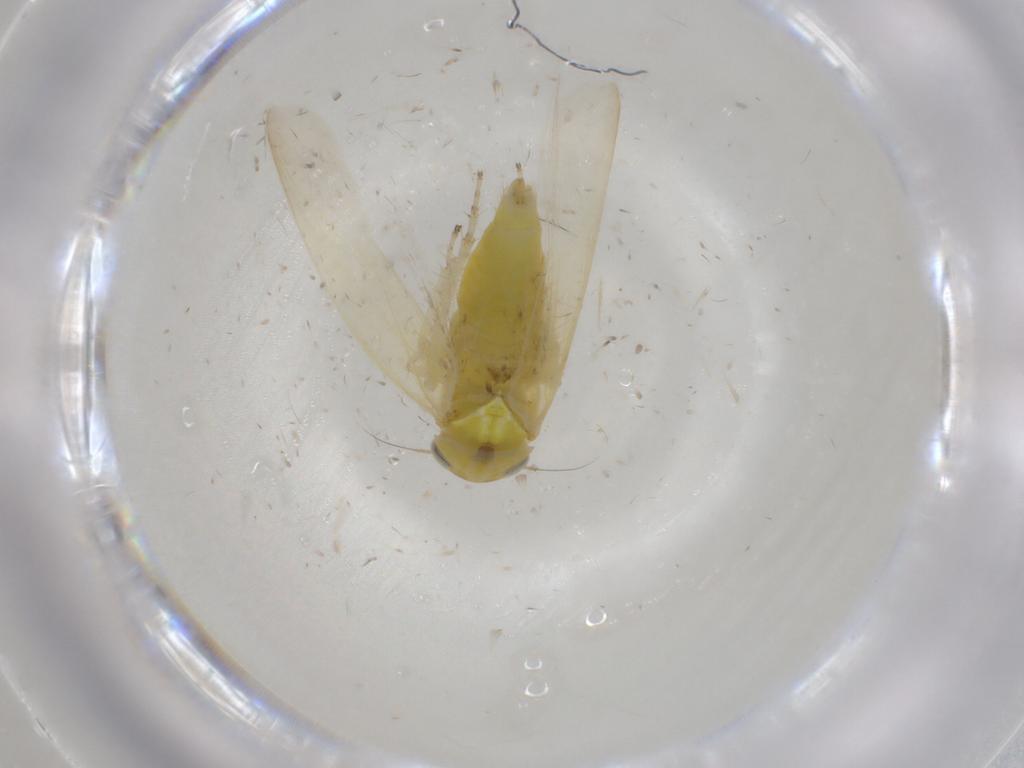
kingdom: Animalia
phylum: Arthropoda
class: Insecta
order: Hemiptera
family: Cicadellidae
